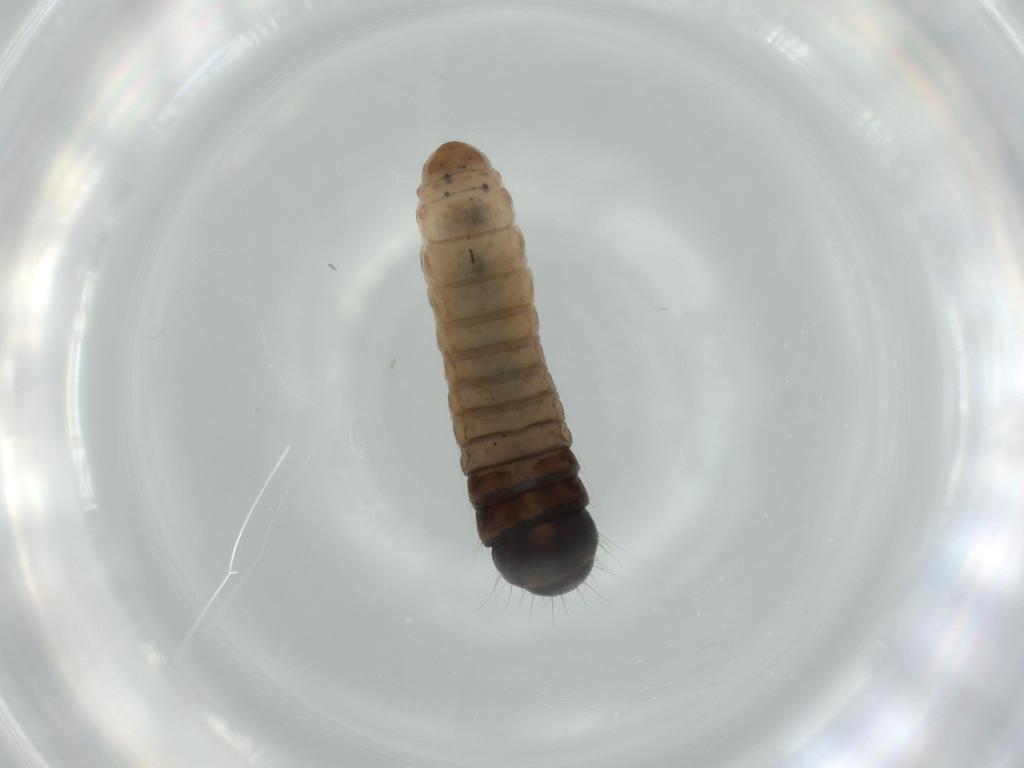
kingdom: Animalia
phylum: Arthropoda
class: Insecta
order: Lepidoptera
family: Psychidae
